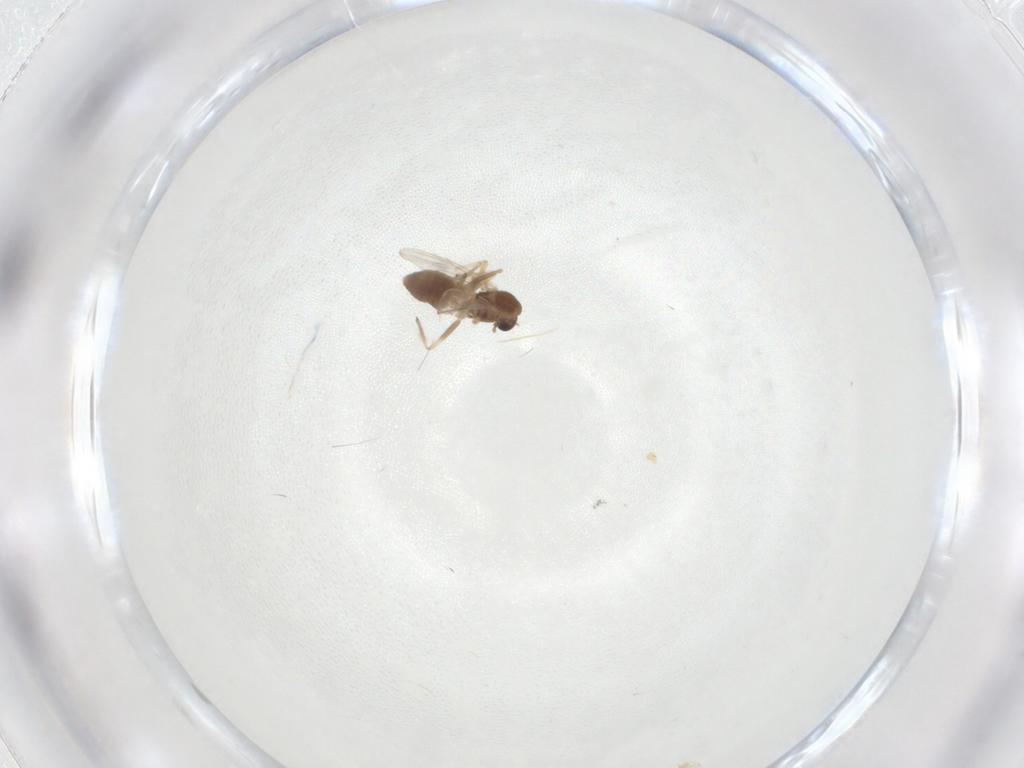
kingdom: Animalia
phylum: Arthropoda
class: Insecta
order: Diptera
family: Chironomidae
